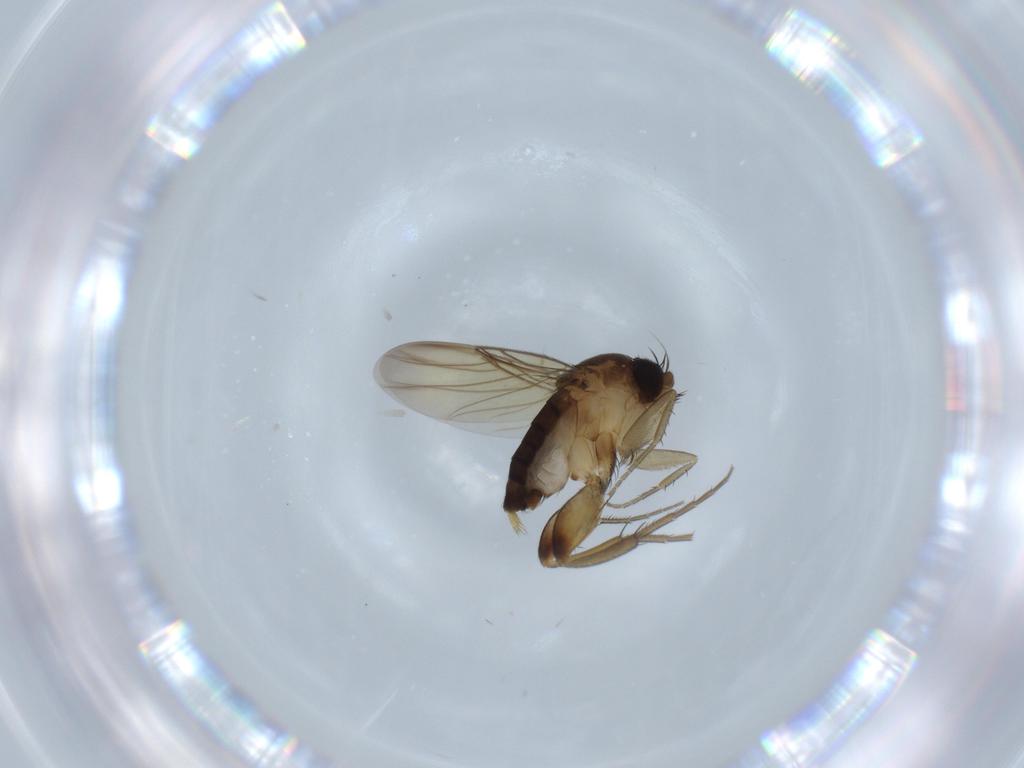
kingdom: Animalia
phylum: Arthropoda
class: Insecta
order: Diptera
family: Phoridae
